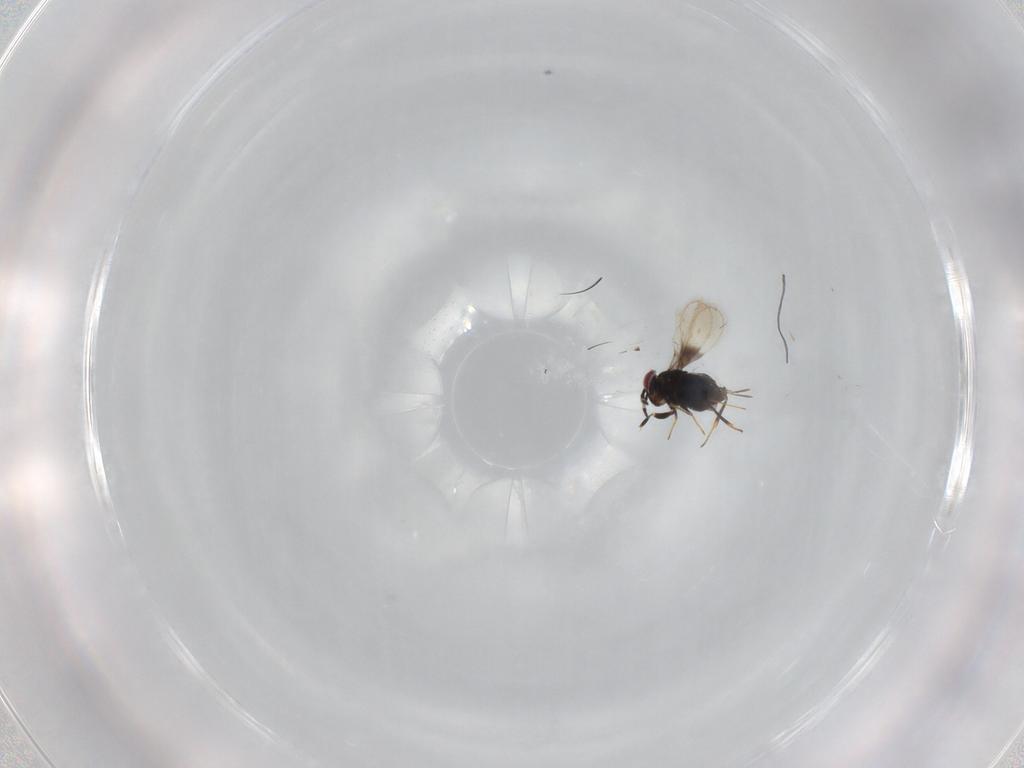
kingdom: Animalia
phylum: Arthropoda
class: Insecta
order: Hymenoptera
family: Azotidae
